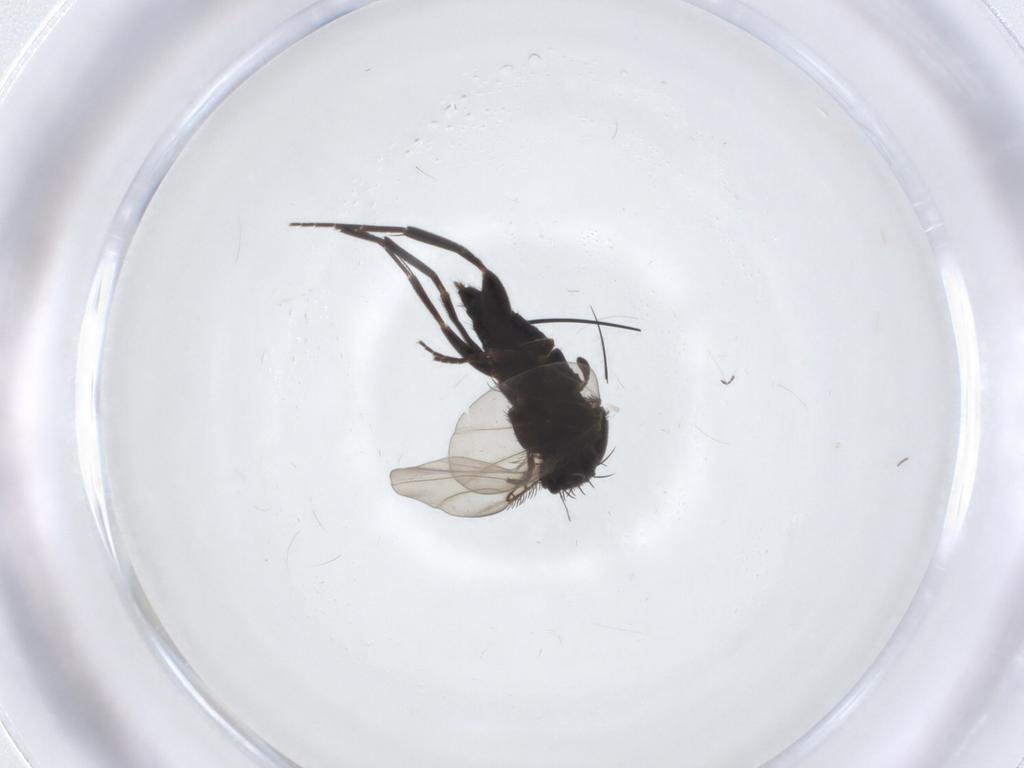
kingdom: Animalia
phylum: Arthropoda
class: Insecta
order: Diptera
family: Phoridae
